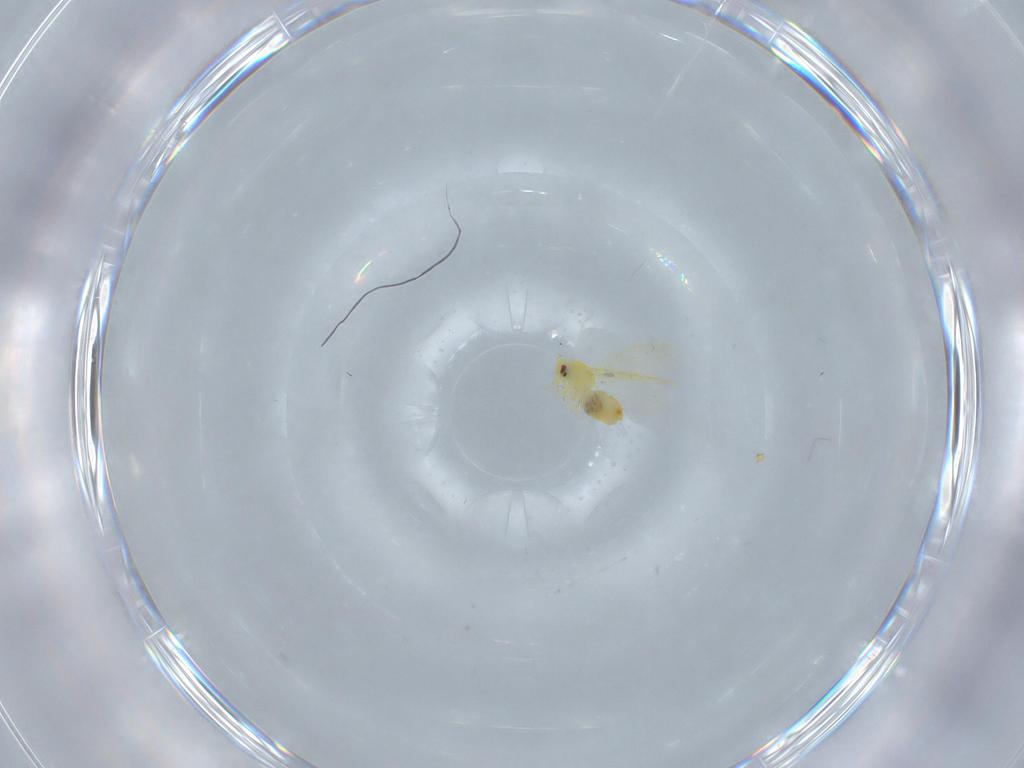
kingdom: Animalia
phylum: Arthropoda
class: Insecta
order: Hemiptera
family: Aleyrodidae
